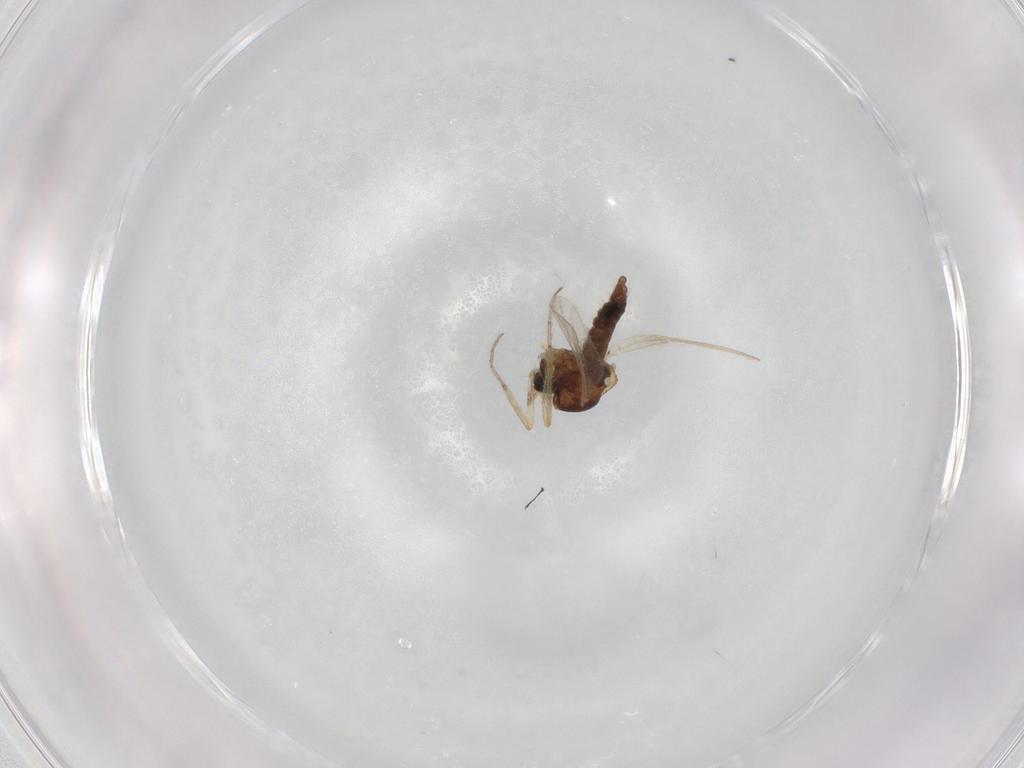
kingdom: Animalia
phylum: Arthropoda
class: Insecta
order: Diptera
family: Ceratopogonidae
